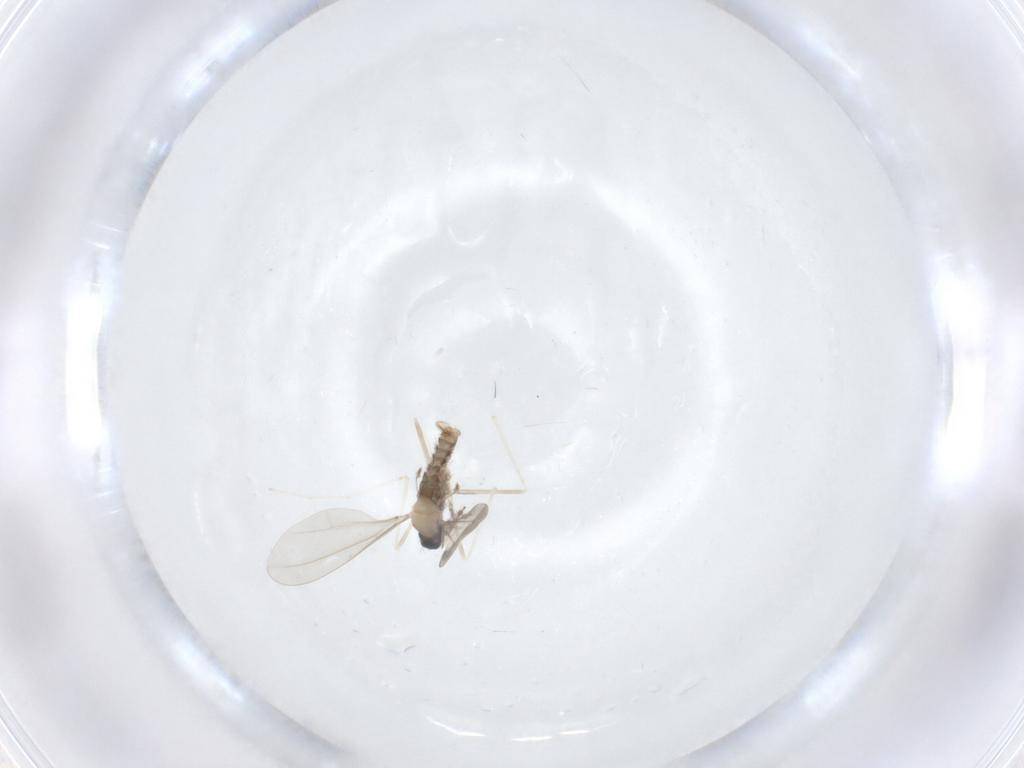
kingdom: Animalia
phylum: Arthropoda
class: Insecta
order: Diptera
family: Cecidomyiidae
